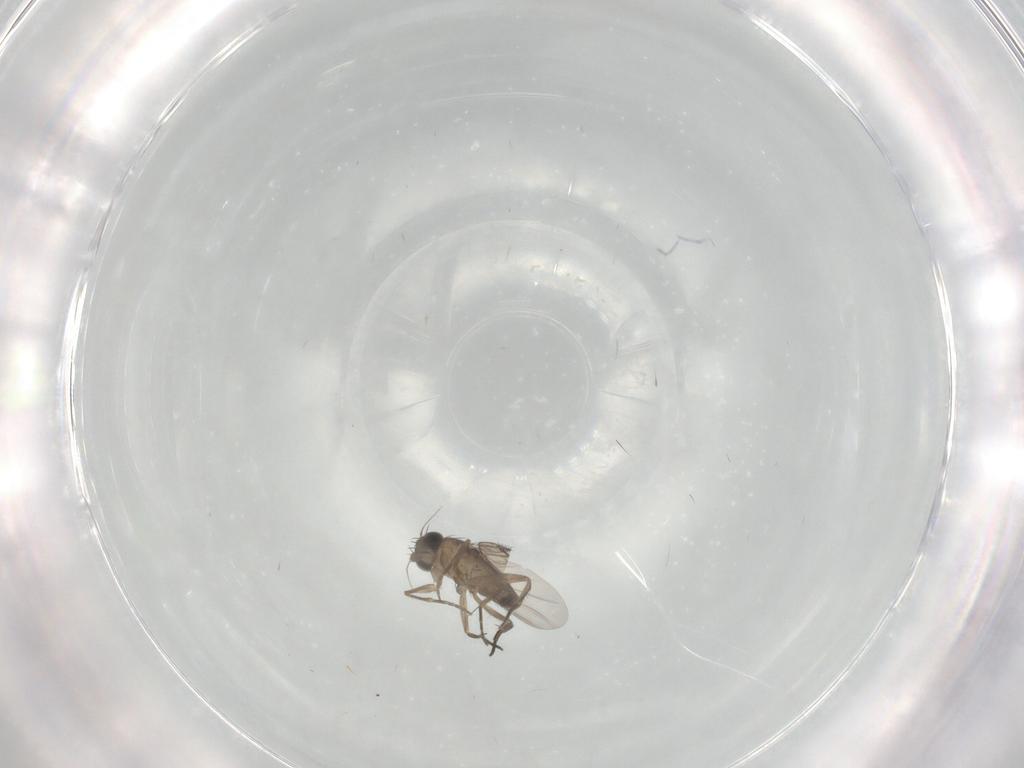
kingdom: Animalia
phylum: Arthropoda
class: Insecta
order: Diptera
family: Phoridae
